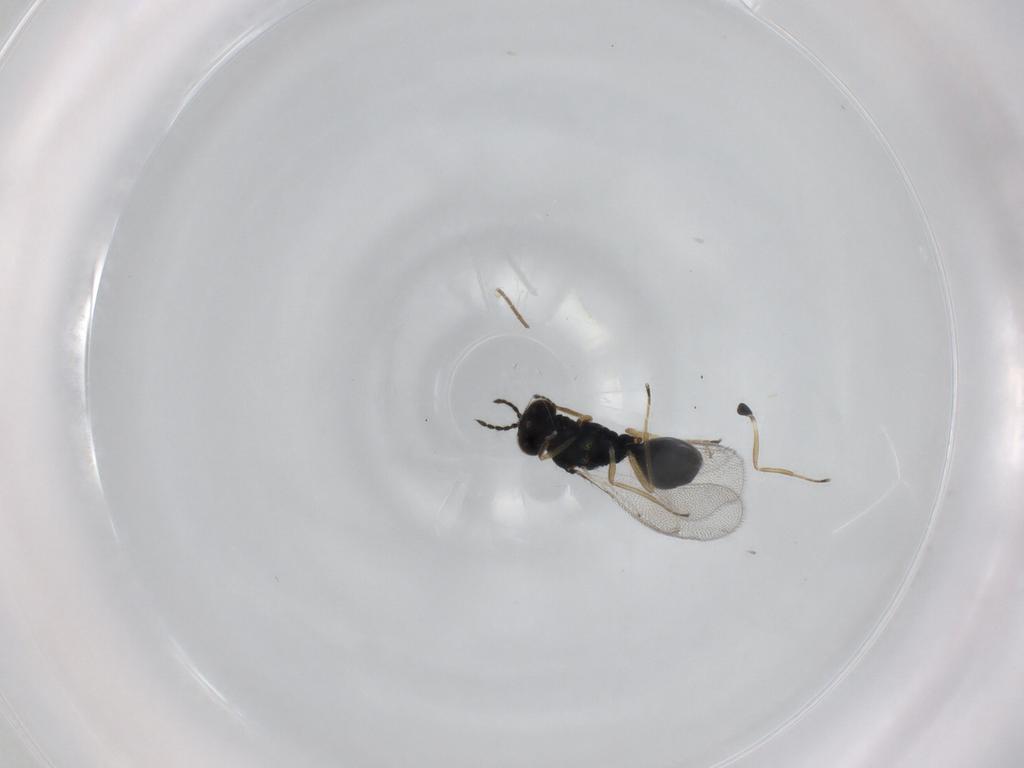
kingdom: Animalia
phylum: Arthropoda
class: Insecta
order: Hymenoptera
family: Eulophidae
